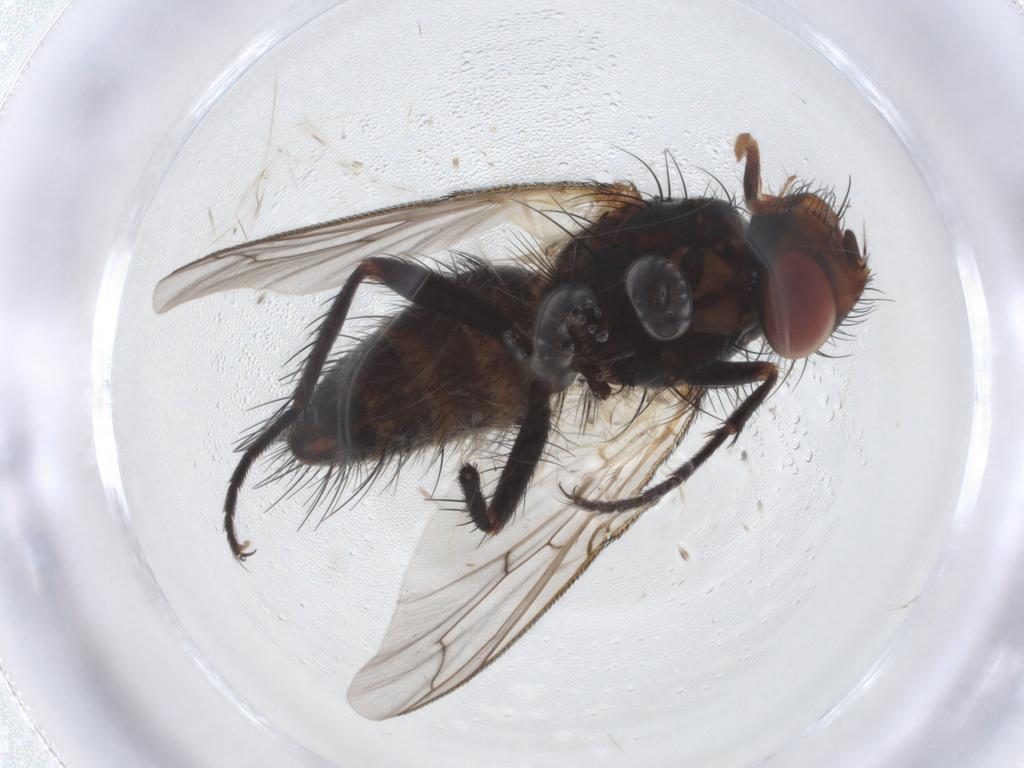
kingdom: Animalia
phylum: Arthropoda
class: Insecta
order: Diptera
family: Tachinidae
